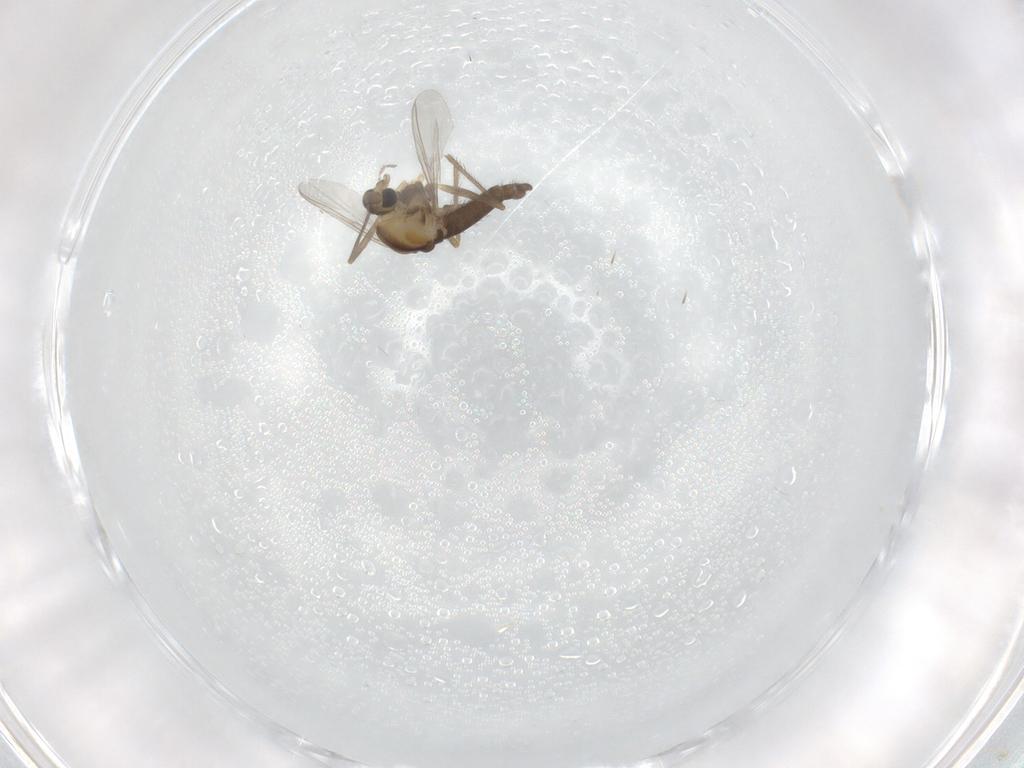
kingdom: Animalia
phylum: Arthropoda
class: Insecta
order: Diptera
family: Chironomidae
